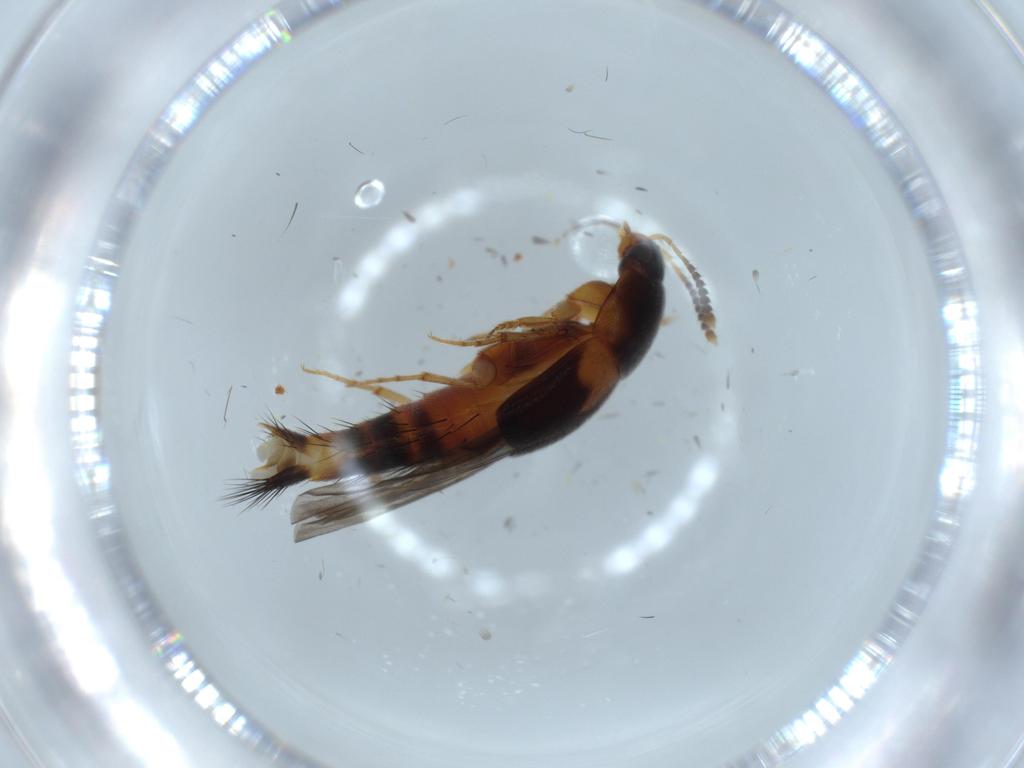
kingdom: Animalia
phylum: Arthropoda
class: Insecta
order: Coleoptera
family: Staphylinidae
